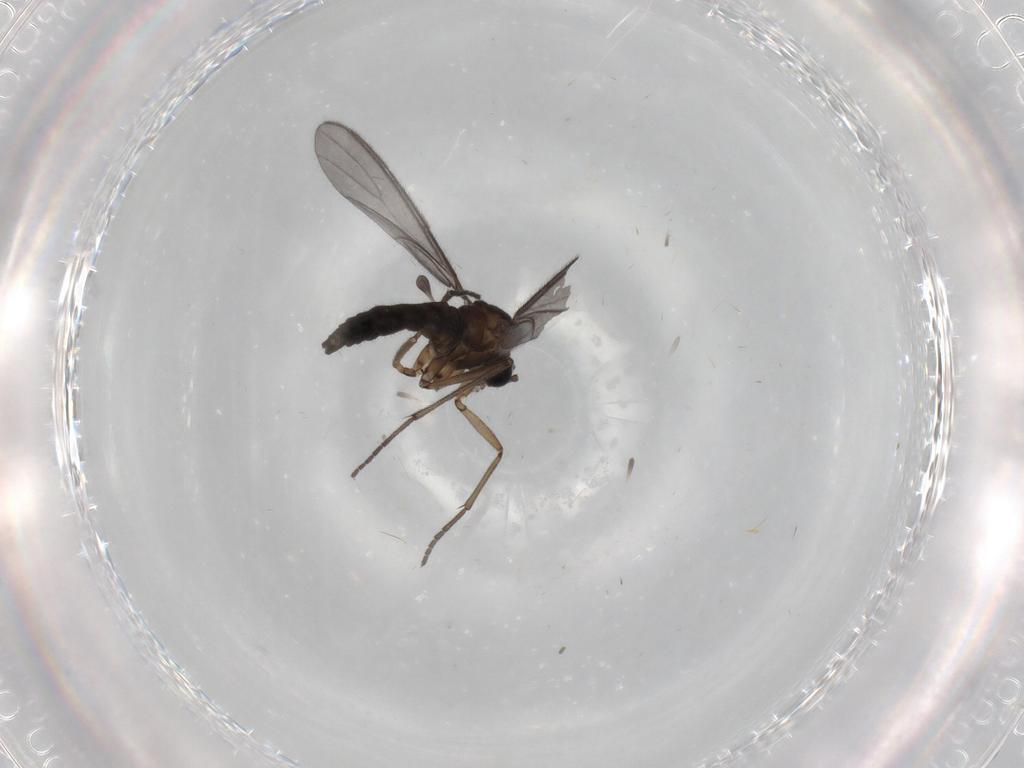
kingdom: Animalia
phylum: Arthropoda
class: Insecta
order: Diptera
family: Sciaridae
